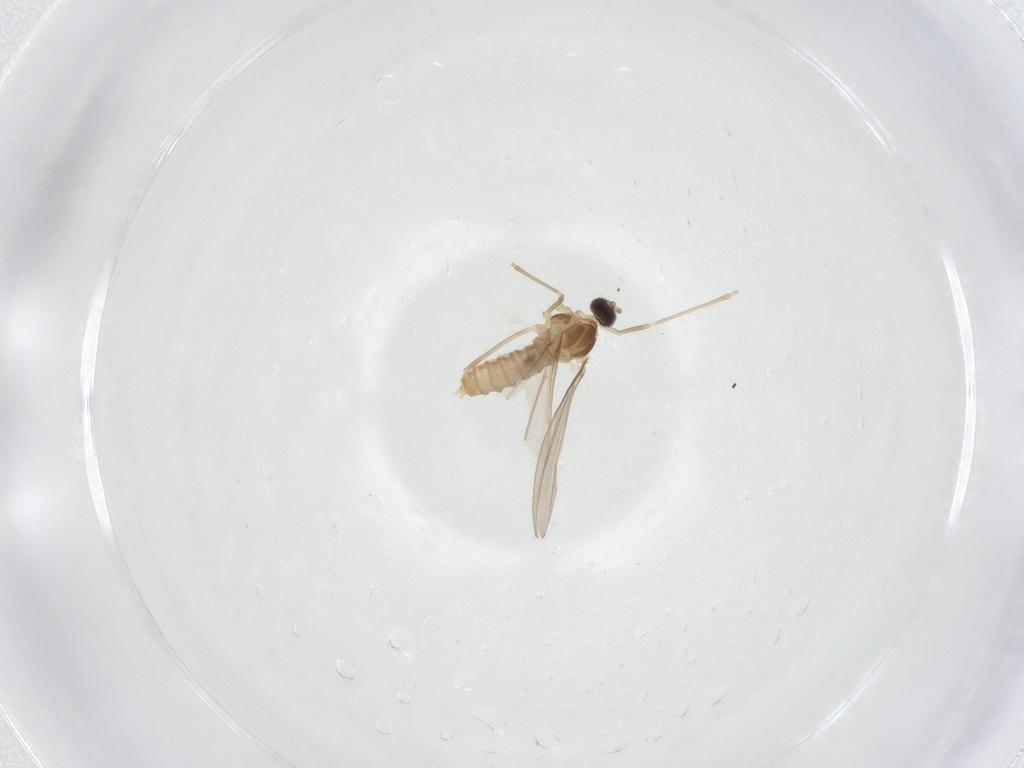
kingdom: Animalia
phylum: Arthropoda
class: Insecta
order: Diptera
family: Cecidomyiidae
